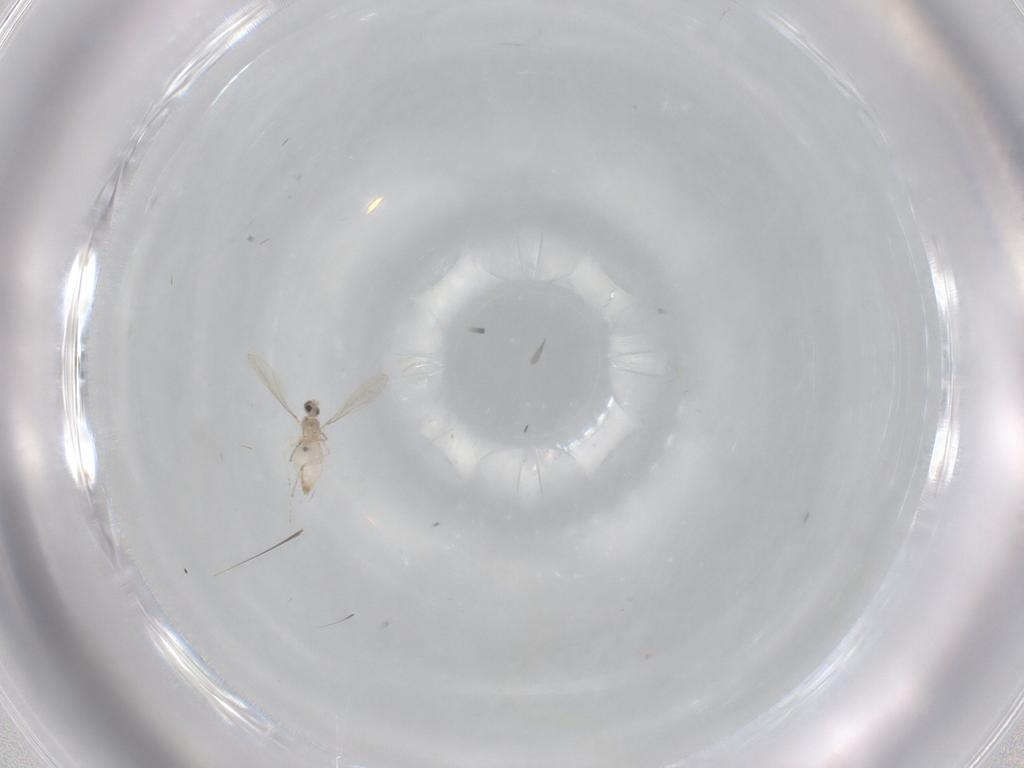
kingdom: Animalia
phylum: Arthropoda
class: Insecta
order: Diptera
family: Cecidomyiidae
